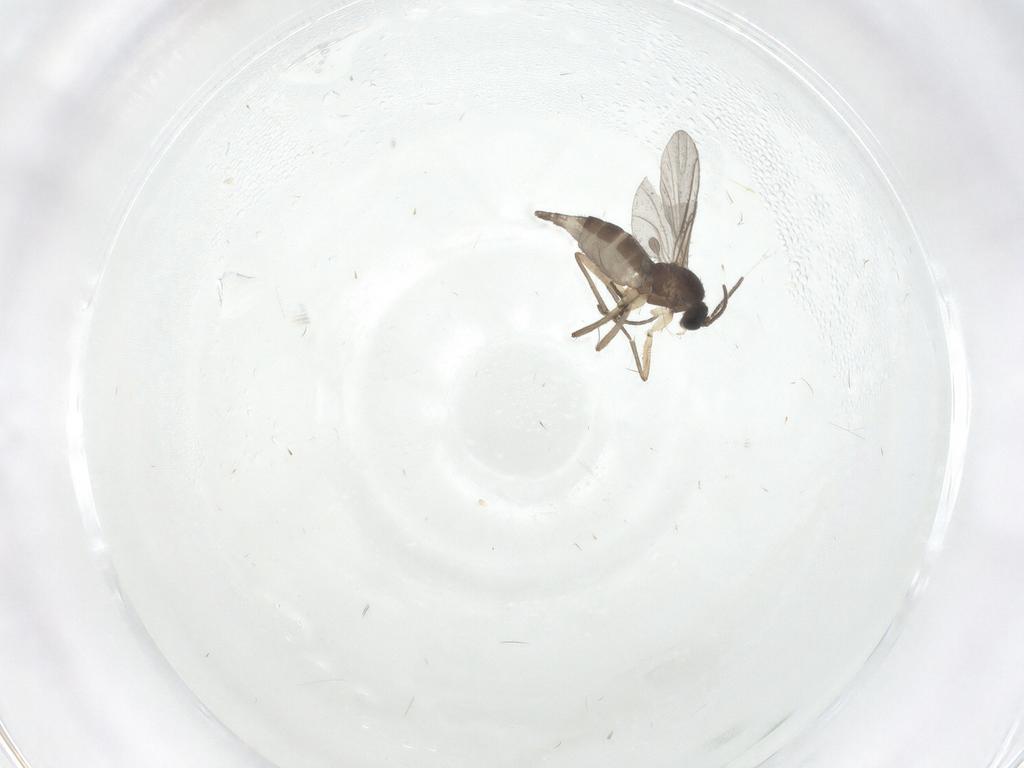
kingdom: Animalia
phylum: Arthropoda
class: Insecta
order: Diptera
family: Sciaridae
